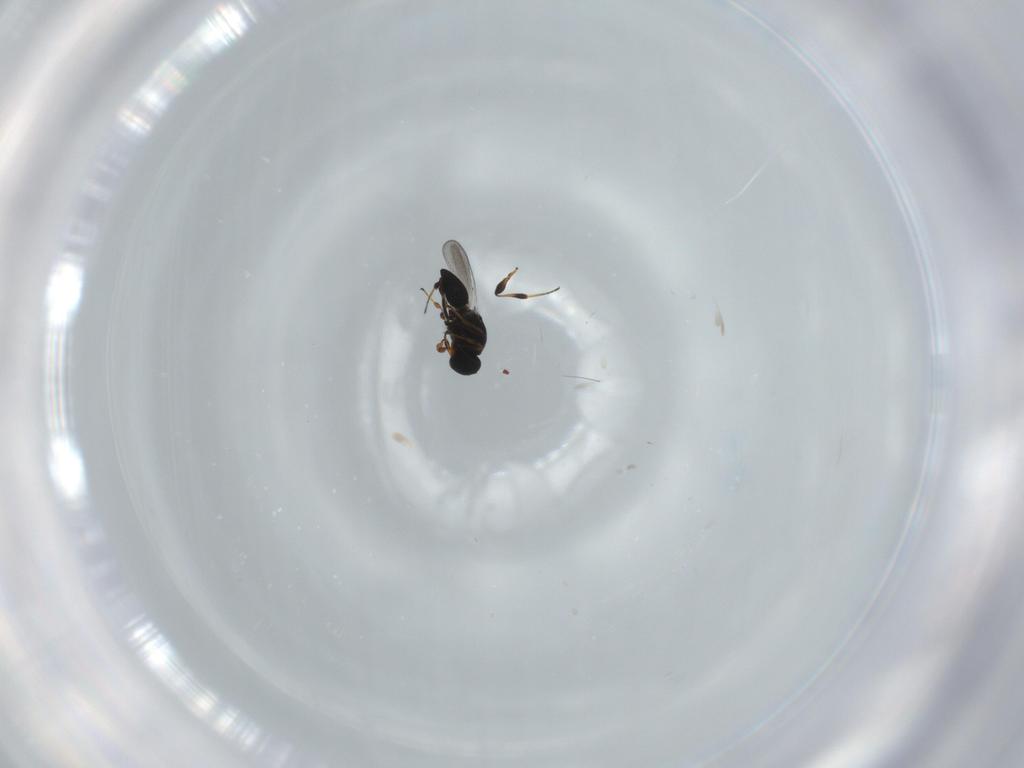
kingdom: Animalia
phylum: Arthropoda
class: Insecta
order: Hymenoptera
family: Platygastridae
